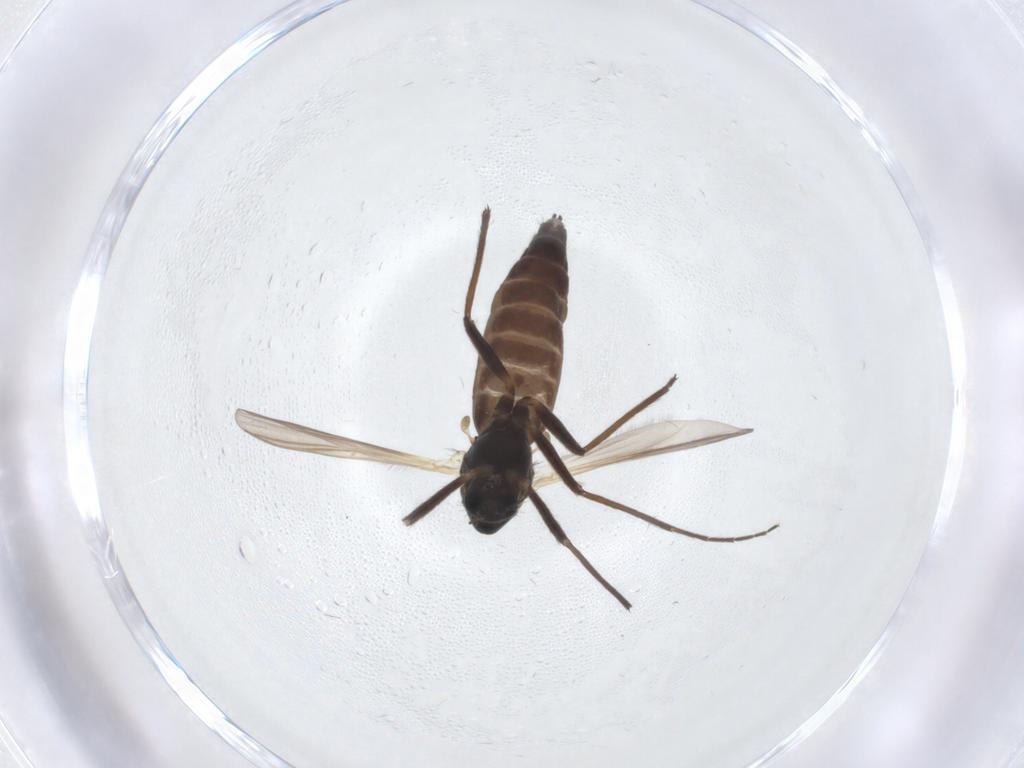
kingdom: Animalia
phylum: Arthropoda
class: Insecta
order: Diptera
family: Chironomidae
